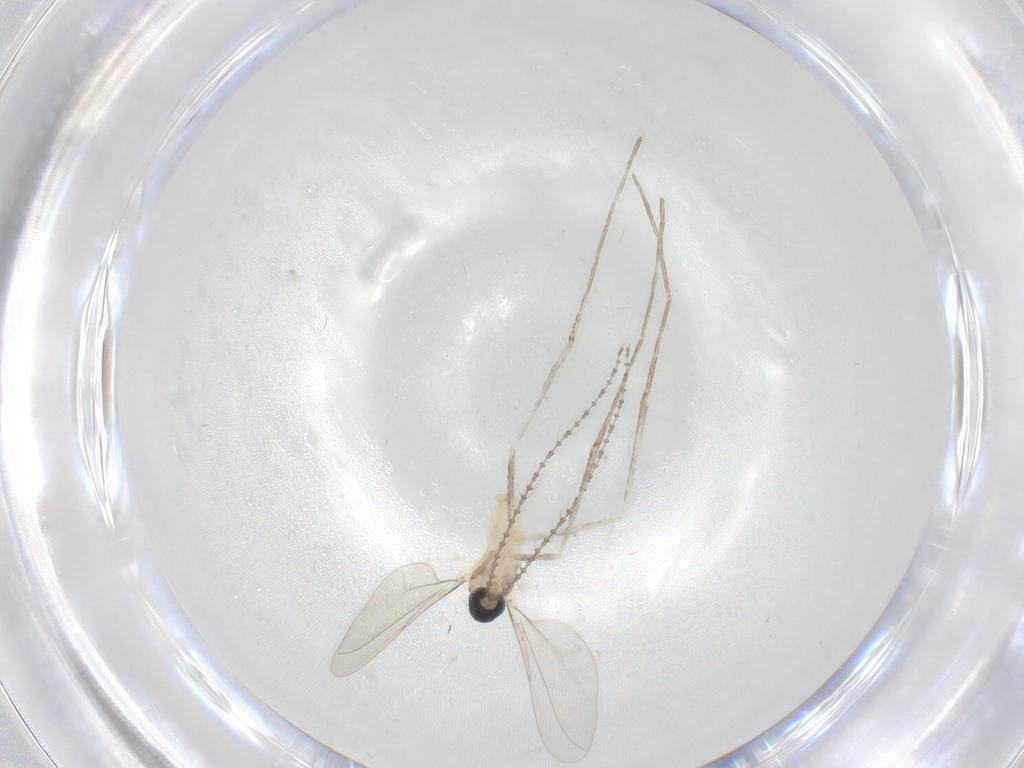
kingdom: Animalia
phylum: Arthropoda
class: Insecta
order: Diptera
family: Cecidomyiidae
